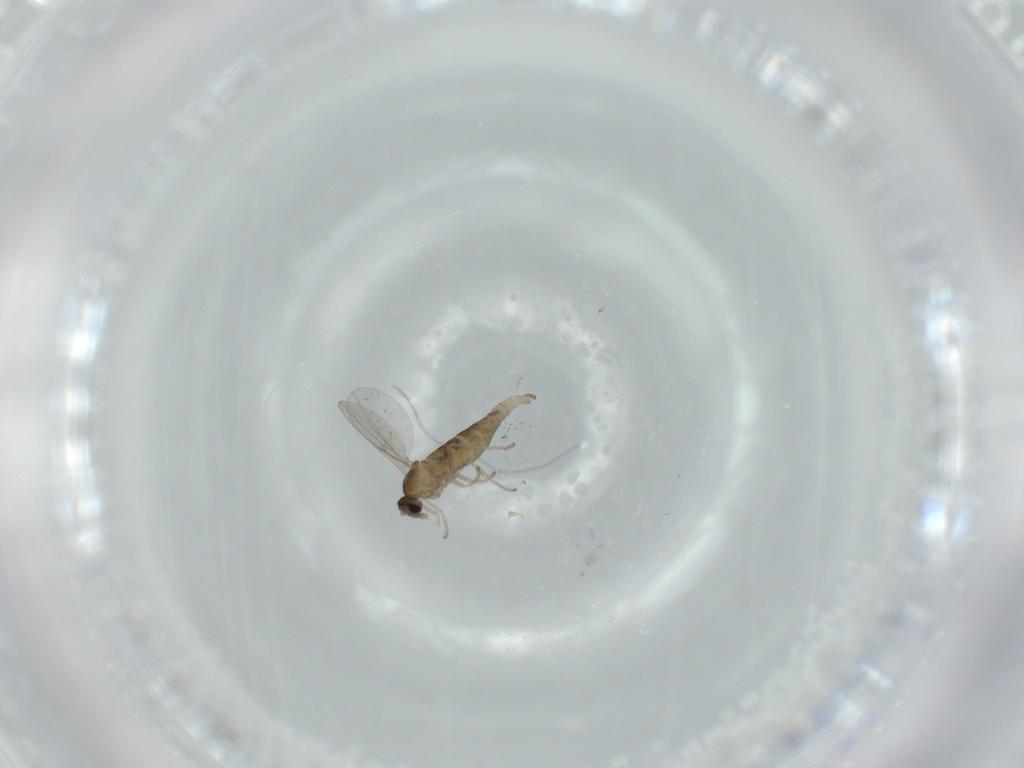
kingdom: Animalia
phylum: Arthropoda
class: Insecta
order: Diptera
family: Cecidomyiidae
